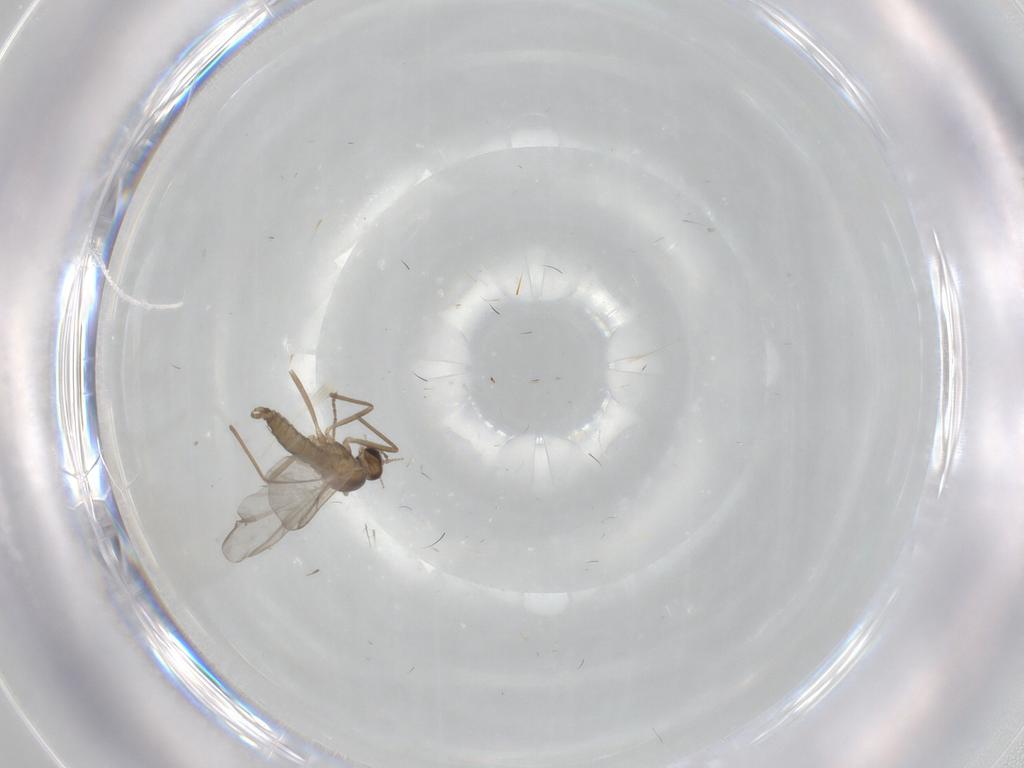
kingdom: Animalia
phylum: Arthropoda
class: Insecta
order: Diptera
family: Cecidomyiidae
